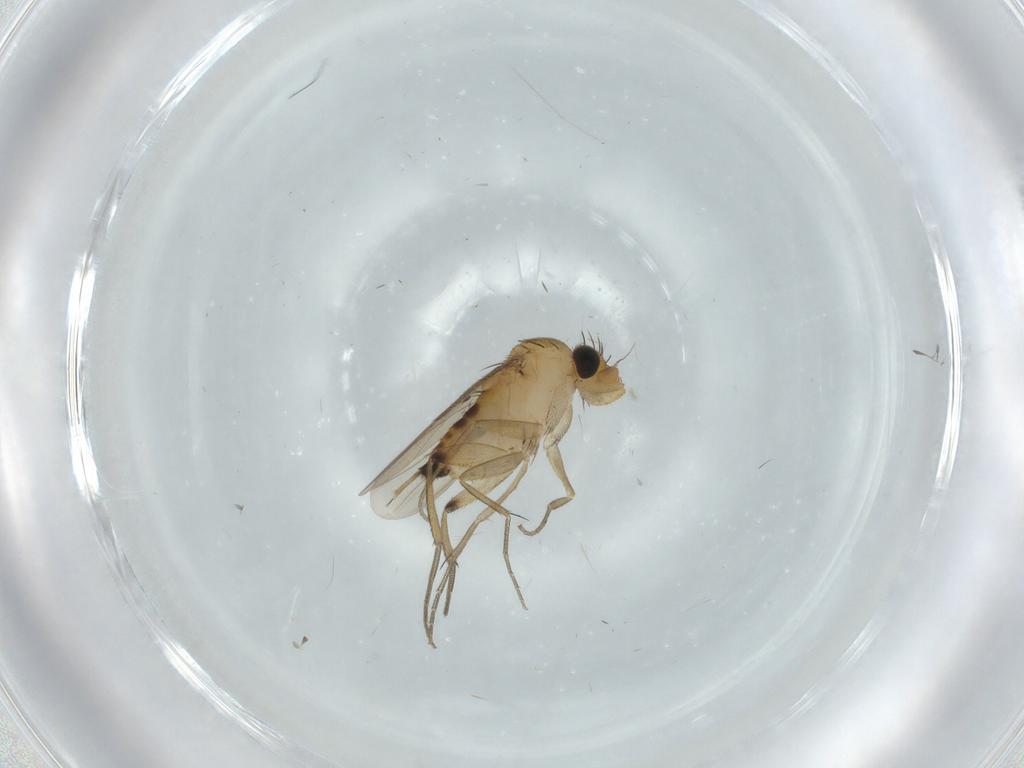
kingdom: Animalia
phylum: Arthropoda
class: Insecta
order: Diptera
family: Phoridae
